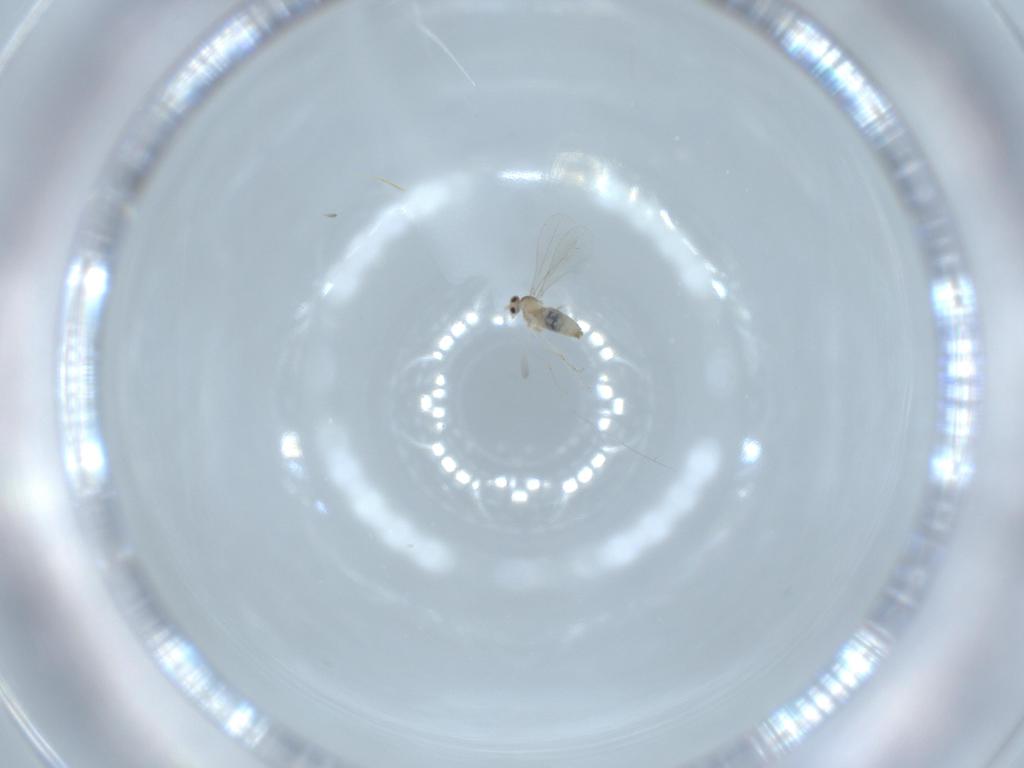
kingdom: Animalia
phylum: Arthropoda
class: Insecta
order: Diptera
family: Cecidomyiidae
